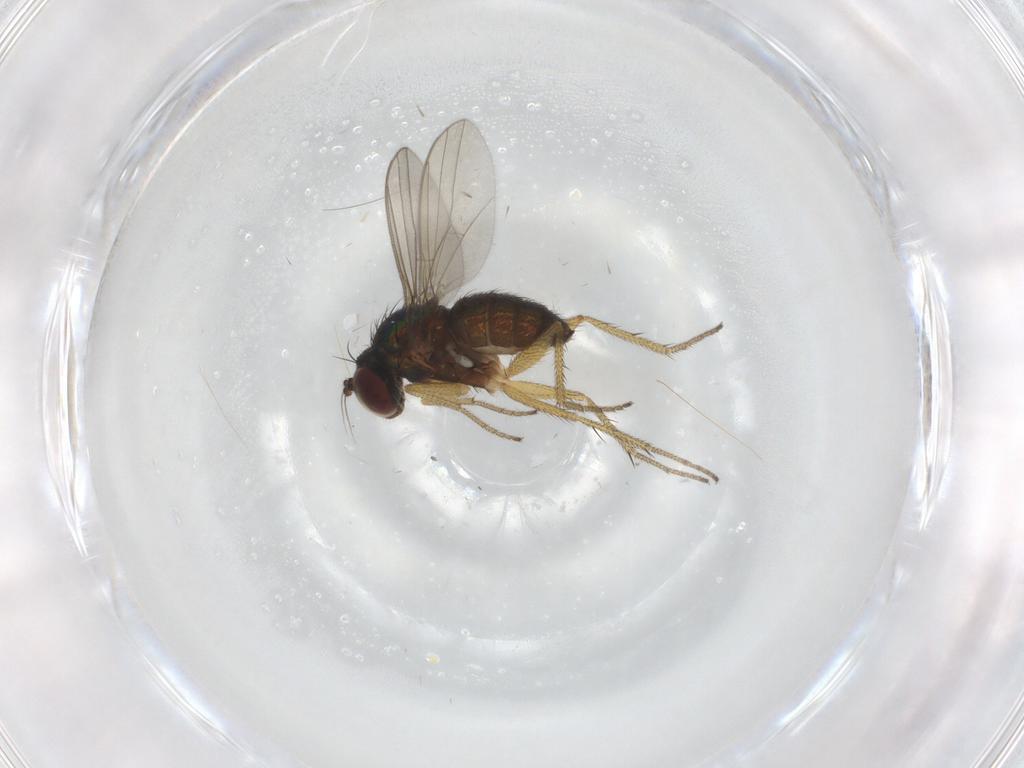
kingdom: Animalia
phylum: Arthropoda
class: Insecta
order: Diptera
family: Dolichopodidae
